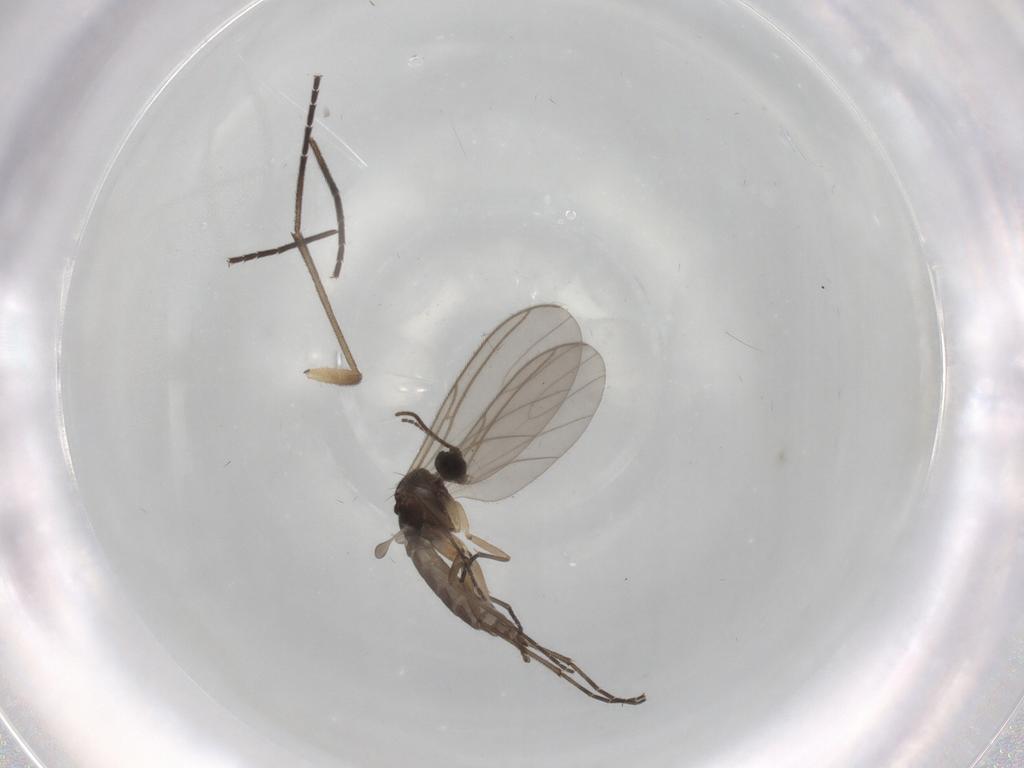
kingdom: Animalia
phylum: Arthropoda
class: Insecta
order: Diptera
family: Sciaridae
